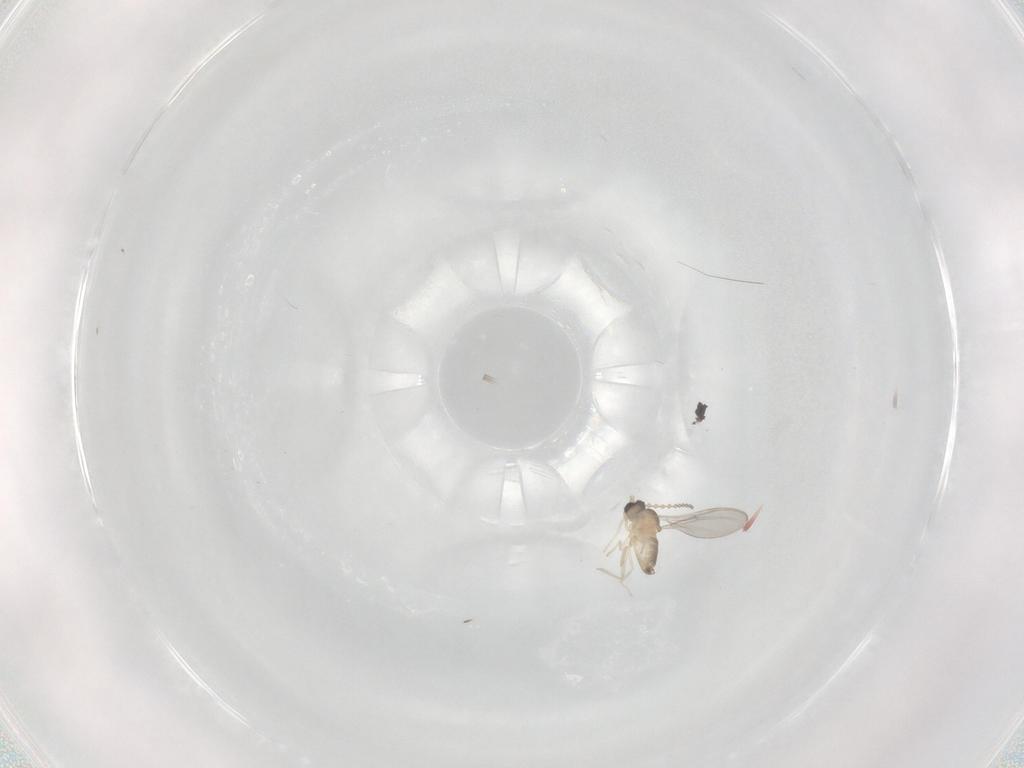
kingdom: Animalia
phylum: Arthropoda
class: Insecta
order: Diptera
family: Cecidomyiidae
